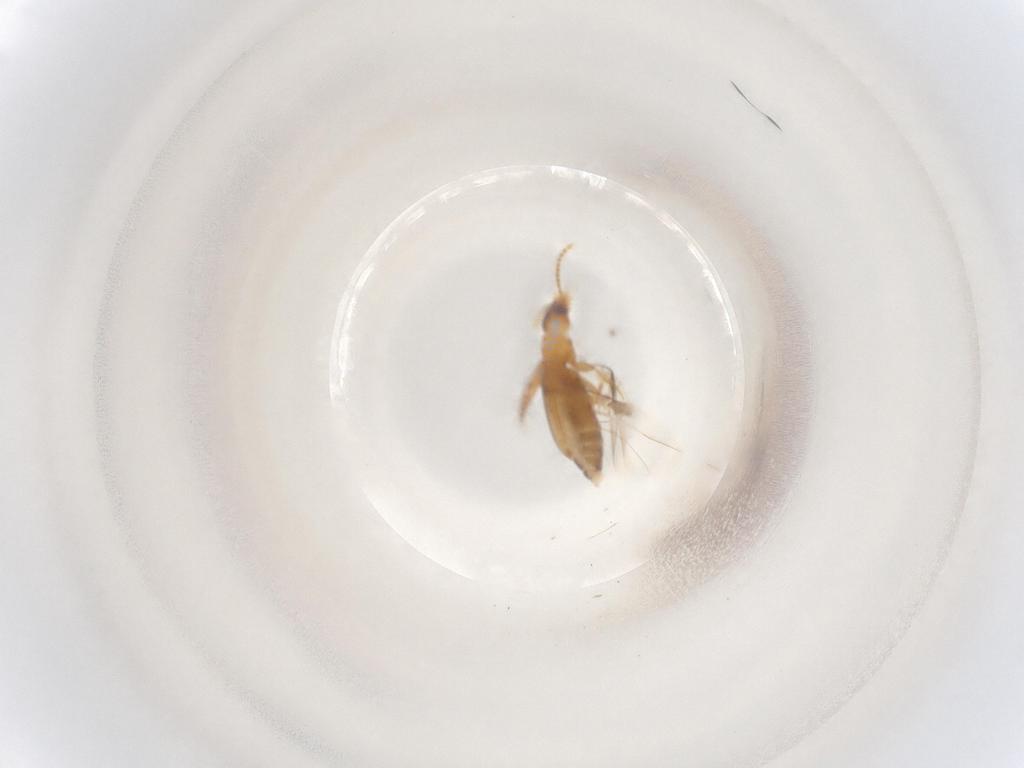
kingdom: Animalia
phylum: Arthropoda
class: Insecta
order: Coleoptera
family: Carabidae
